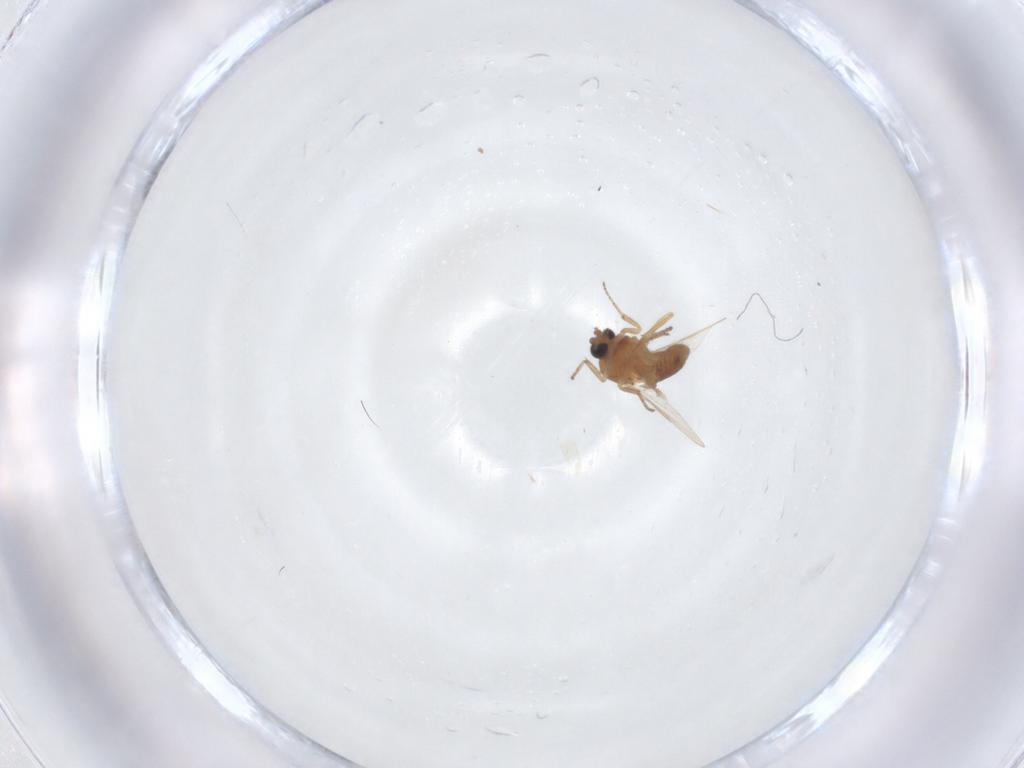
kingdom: Animalia
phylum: Arthropoda
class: Insecta
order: Diptera
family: Ceratopogonidae
